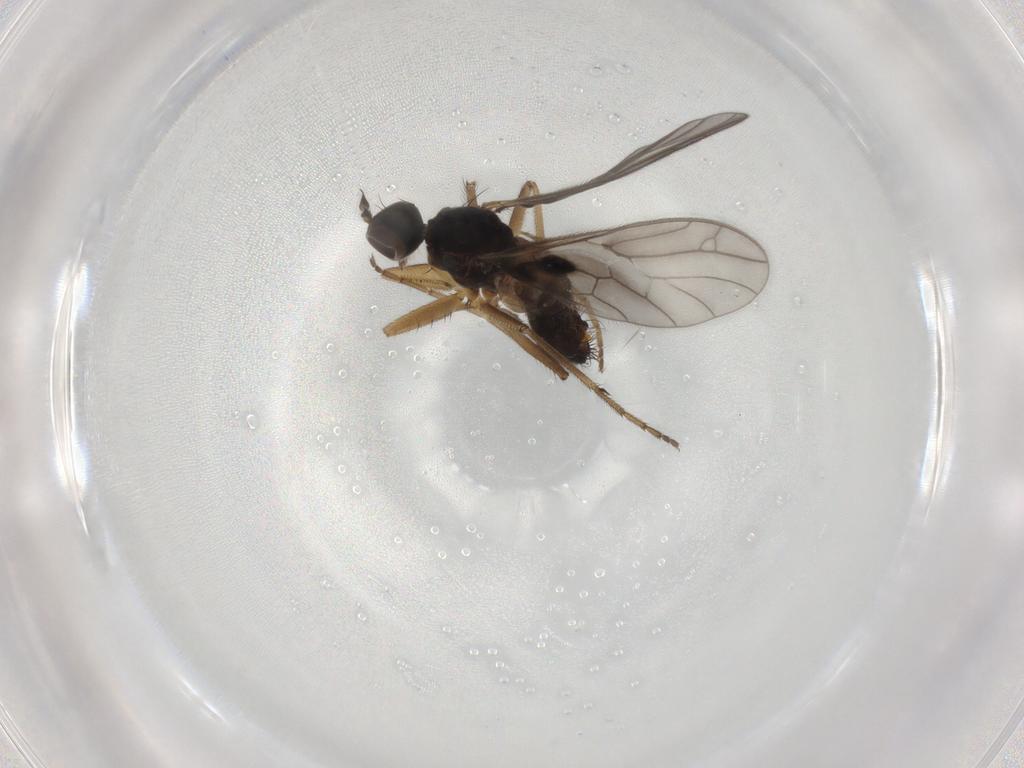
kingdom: Animalia
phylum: Arthropoda
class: Insecta
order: Diptera
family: Empididae
